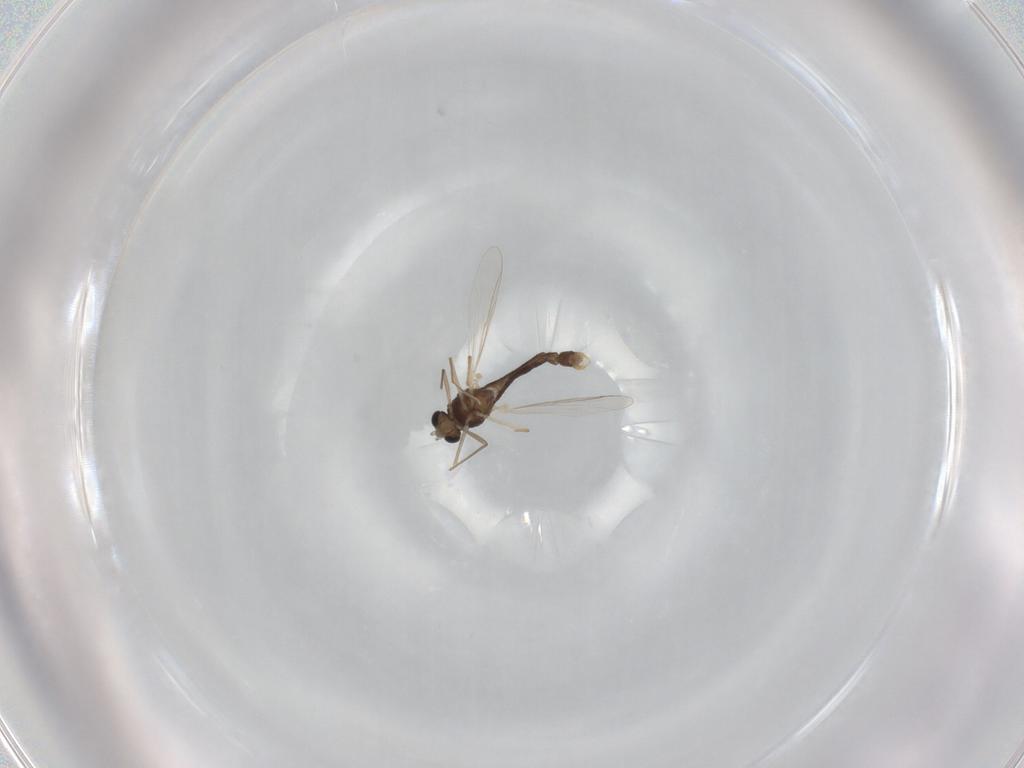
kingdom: Animalia
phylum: Arthropoda
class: Insecta
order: Diptera
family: Chironomidae
